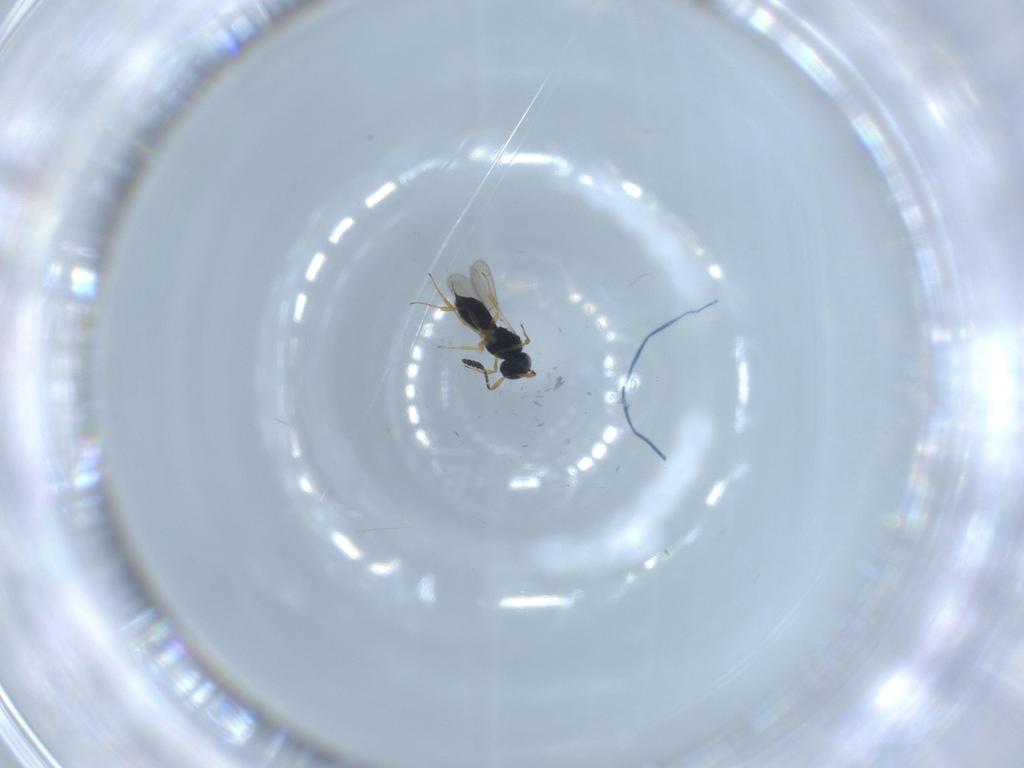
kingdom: Animalia
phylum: Arthropoda
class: Insecta
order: Hymenoptera
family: Scelionidae
